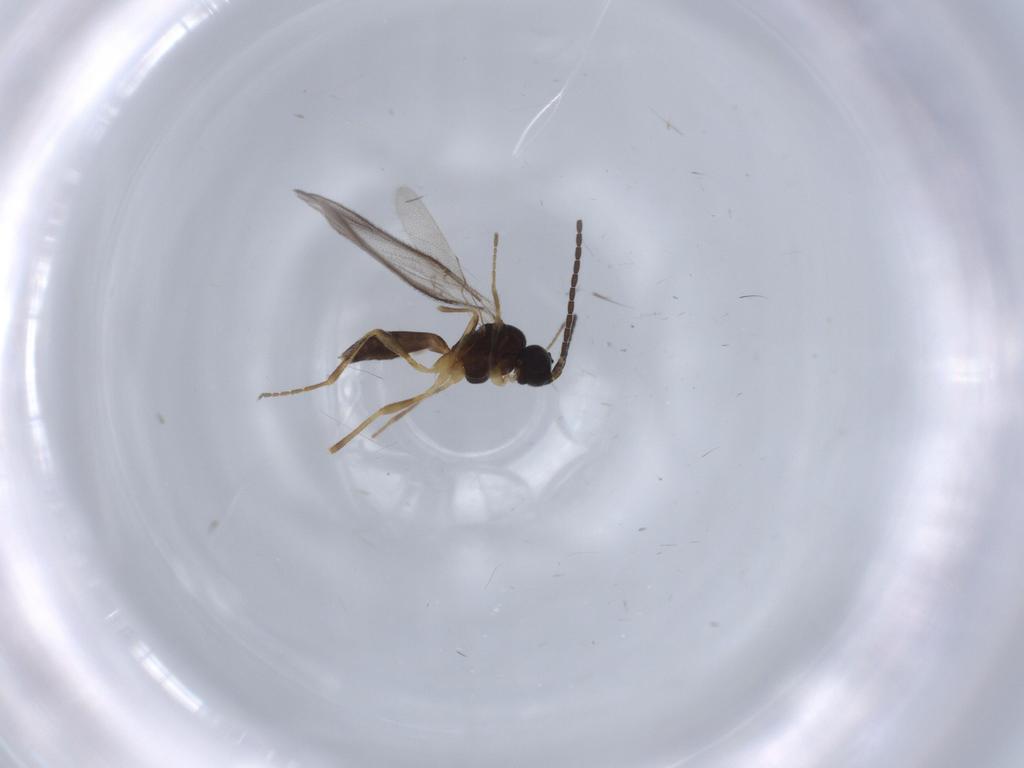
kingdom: Animalia
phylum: Arthropoda
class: Insecta
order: Hymenoptera
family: Braconidae
